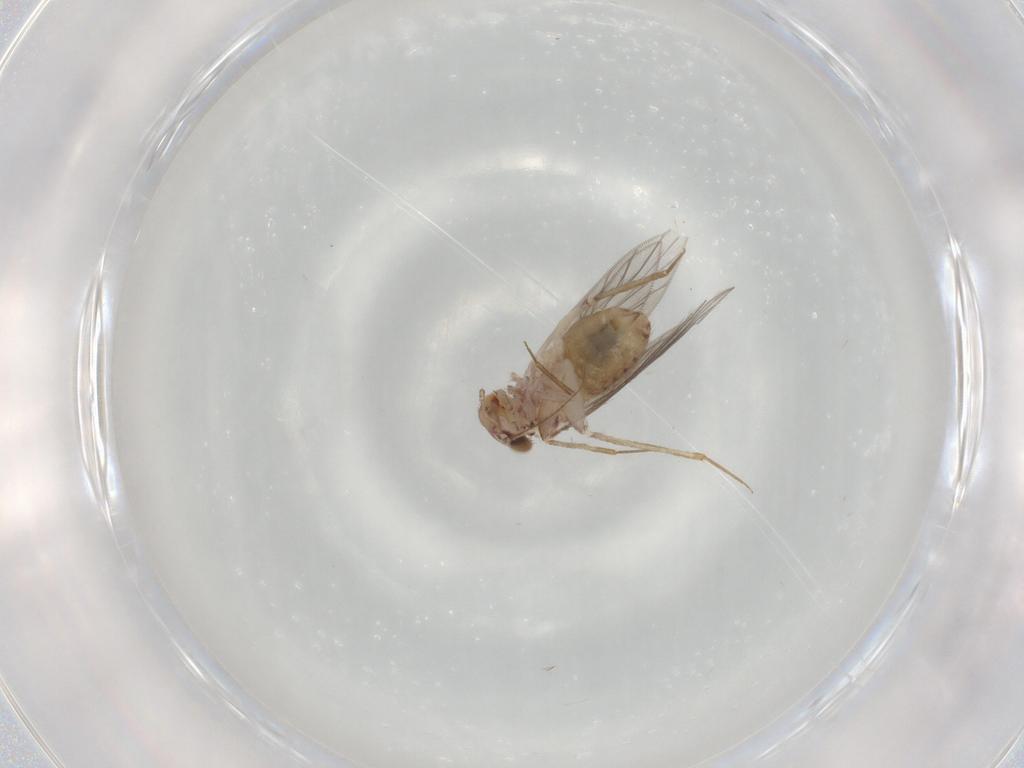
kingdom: Animalia
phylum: Arthropoda
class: Insecta
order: Psocodea
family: Lepidopsocidae
